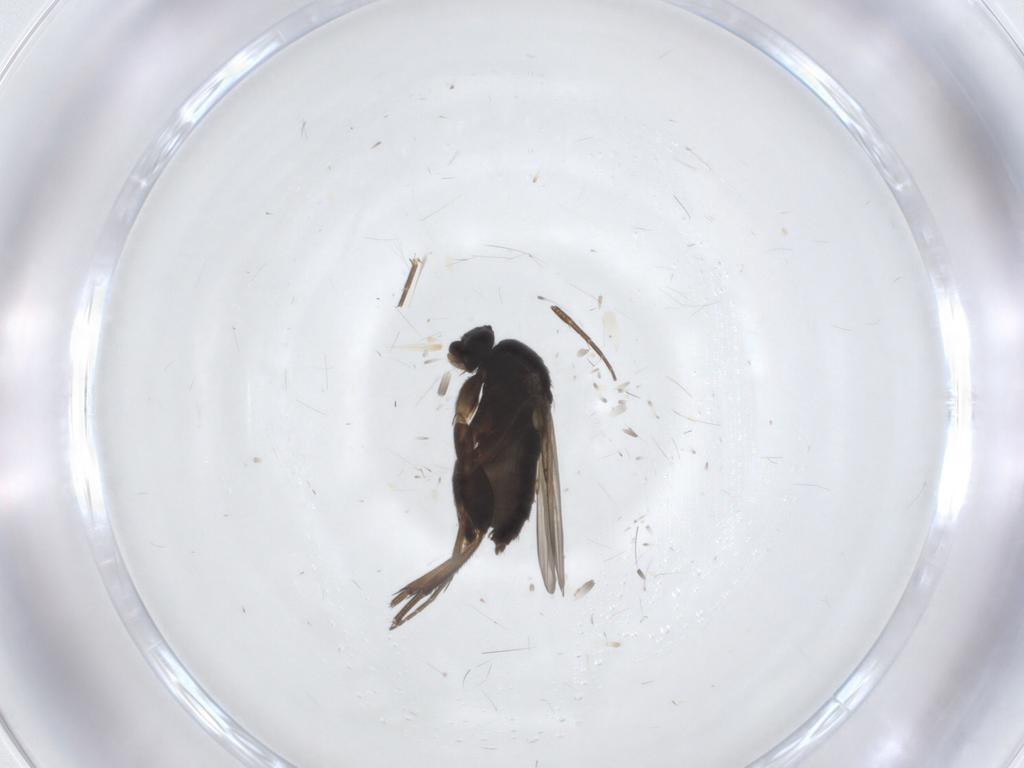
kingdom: Animalia
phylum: Arthropoda
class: Insecta
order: Diptera
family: Phoridae
